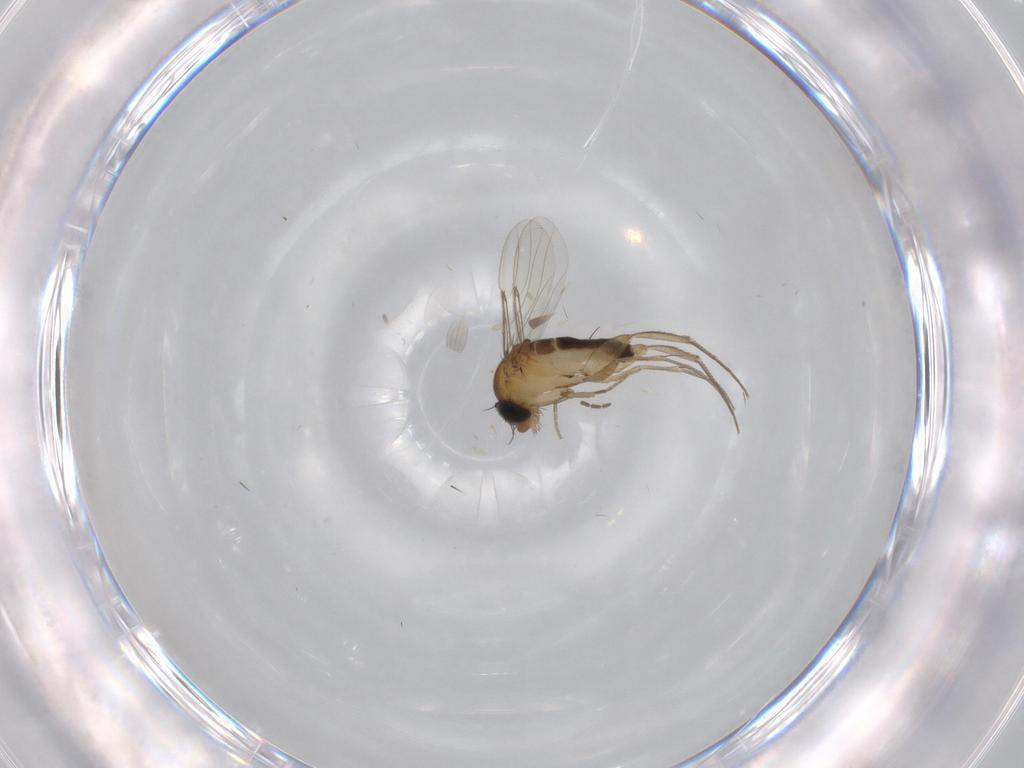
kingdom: Animalia
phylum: Arthropoda
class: Insecta
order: Diptera
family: Phoridae
